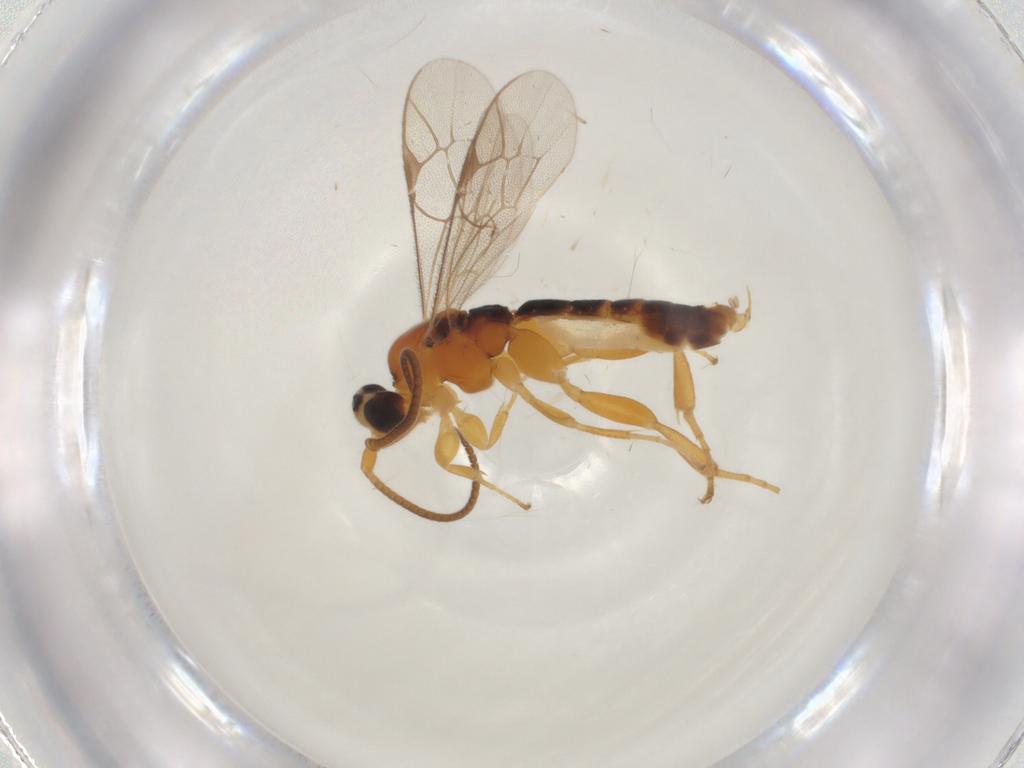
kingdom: Animalia
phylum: Arthropoda
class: Insecta
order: Hymenoptera
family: Ichneumonidae
